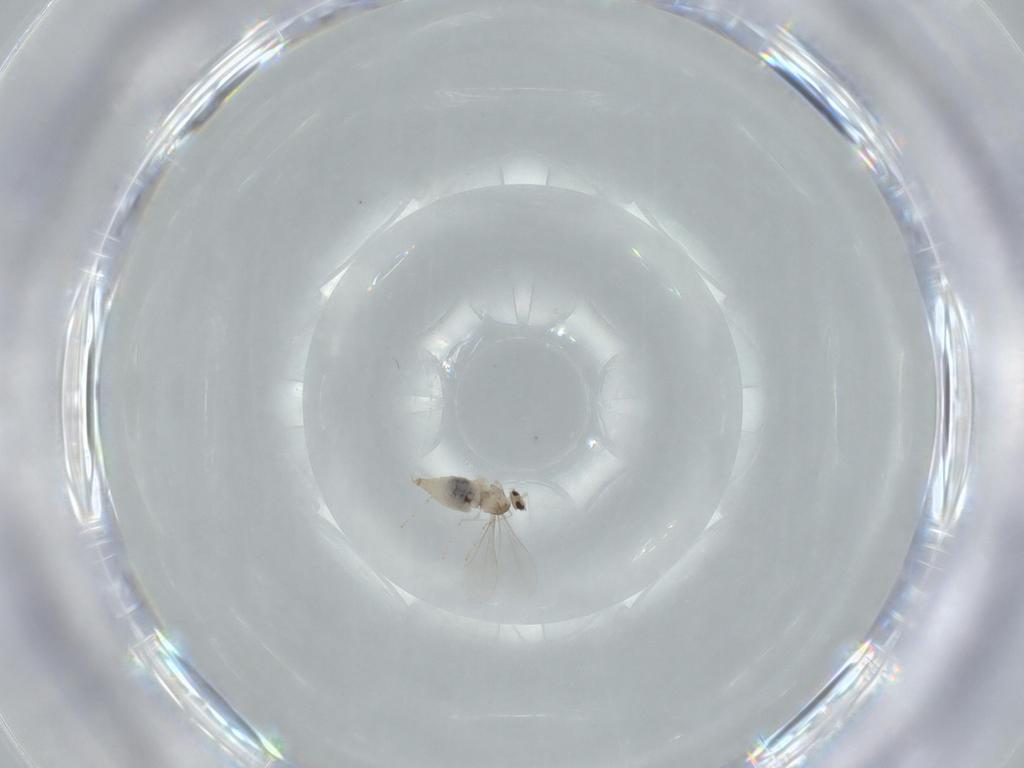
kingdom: Animalia
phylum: Arthropoda
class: Insecta
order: Diptera
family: Cecidomyiidae
